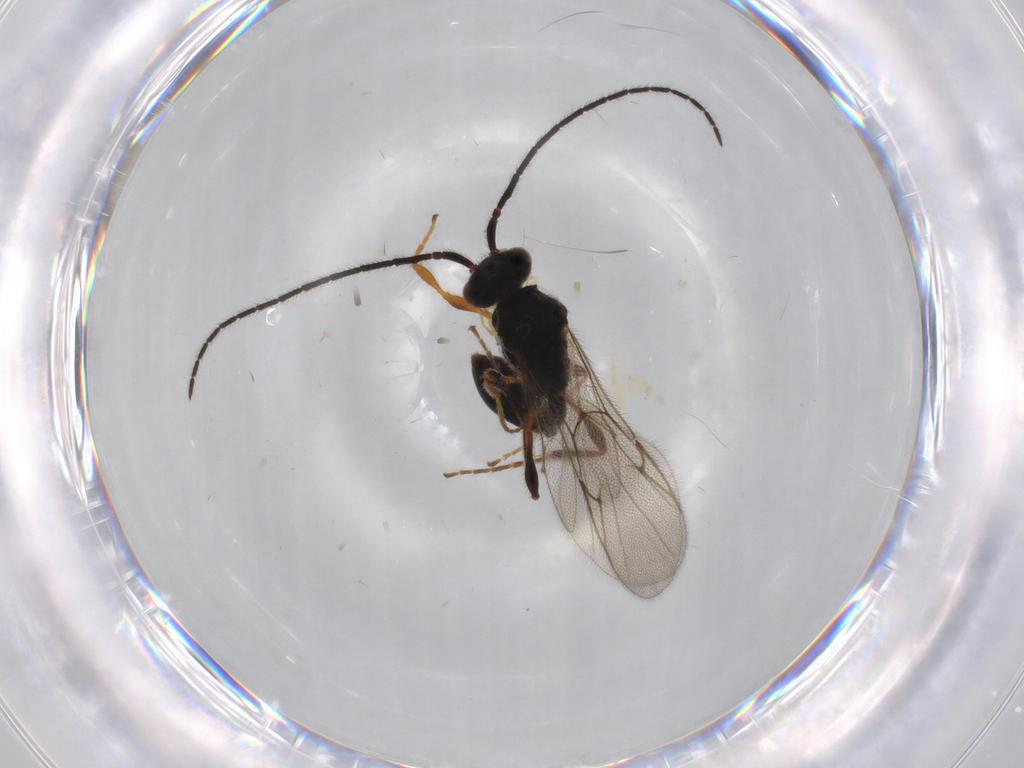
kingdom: Animalia
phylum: Arthropoda
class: Insecta
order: Hymenoptera
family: Diapriidae
